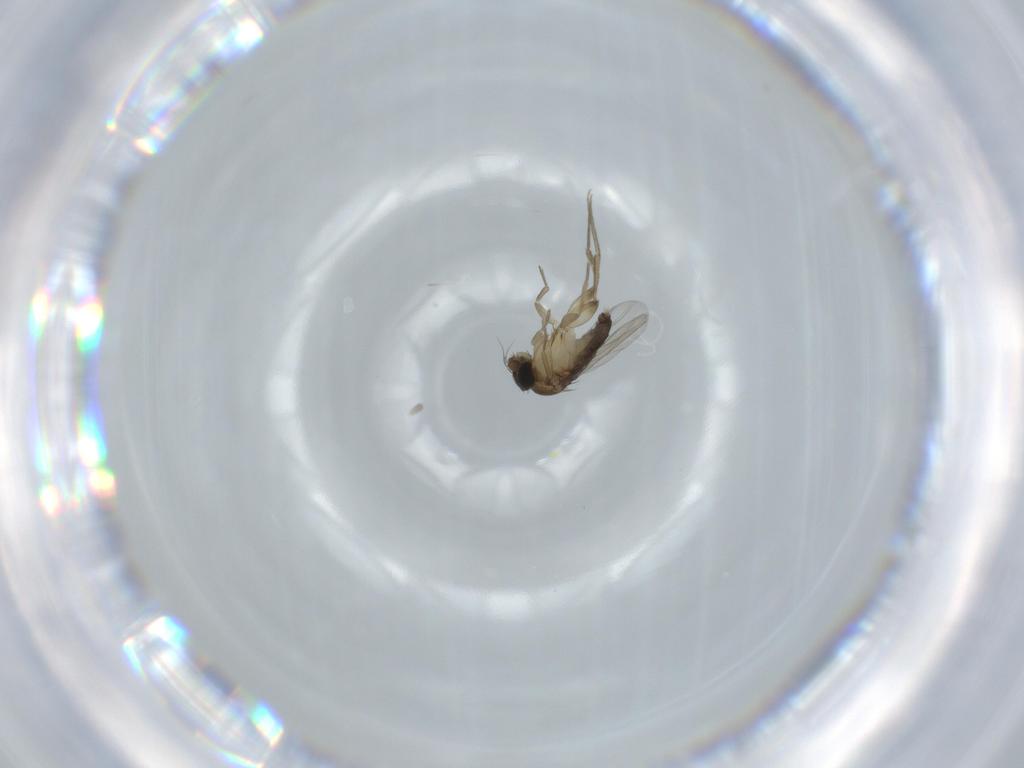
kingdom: Animalia
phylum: Arthropoda
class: Insecta
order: Diptera
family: Phoridae
